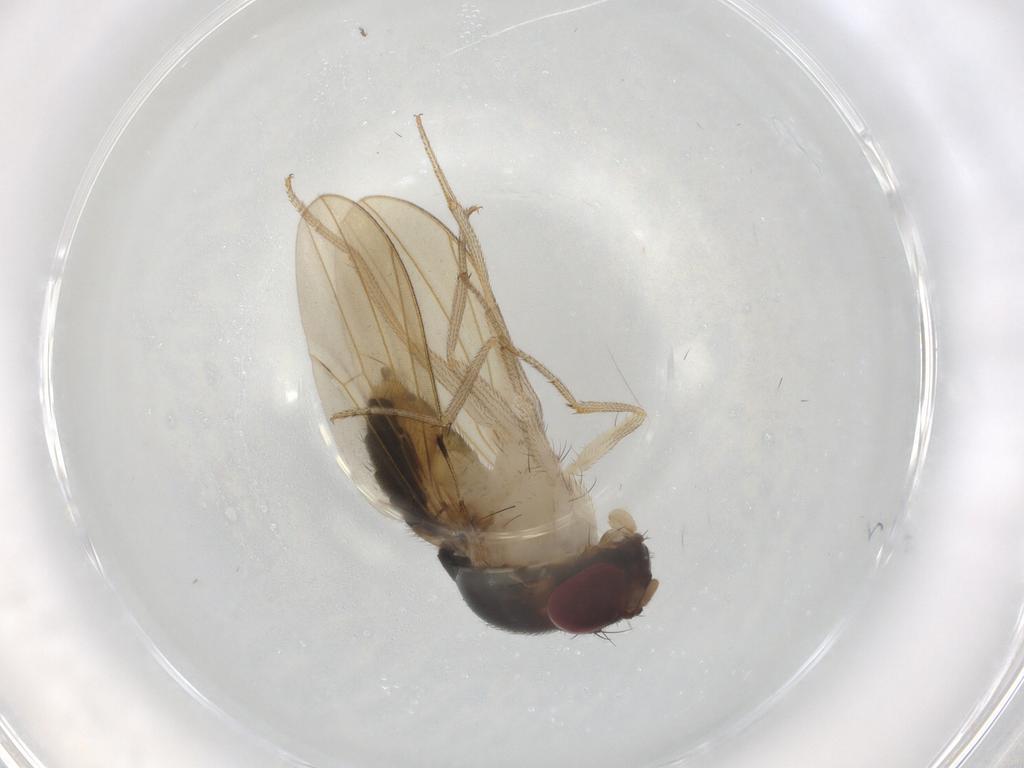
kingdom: Animalia
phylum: Arthropoda
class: Insecta
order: Diptera
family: Drosophilidae
